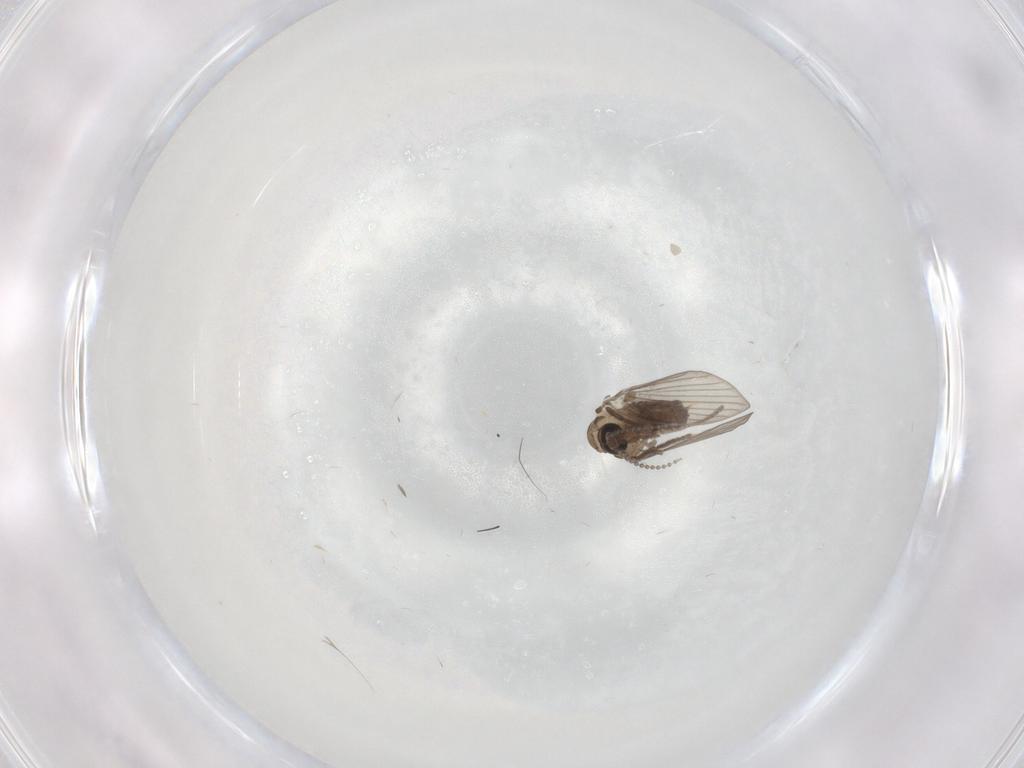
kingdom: Animalia
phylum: Arthropoda
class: Insecta
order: Diptera
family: Psychodidae
